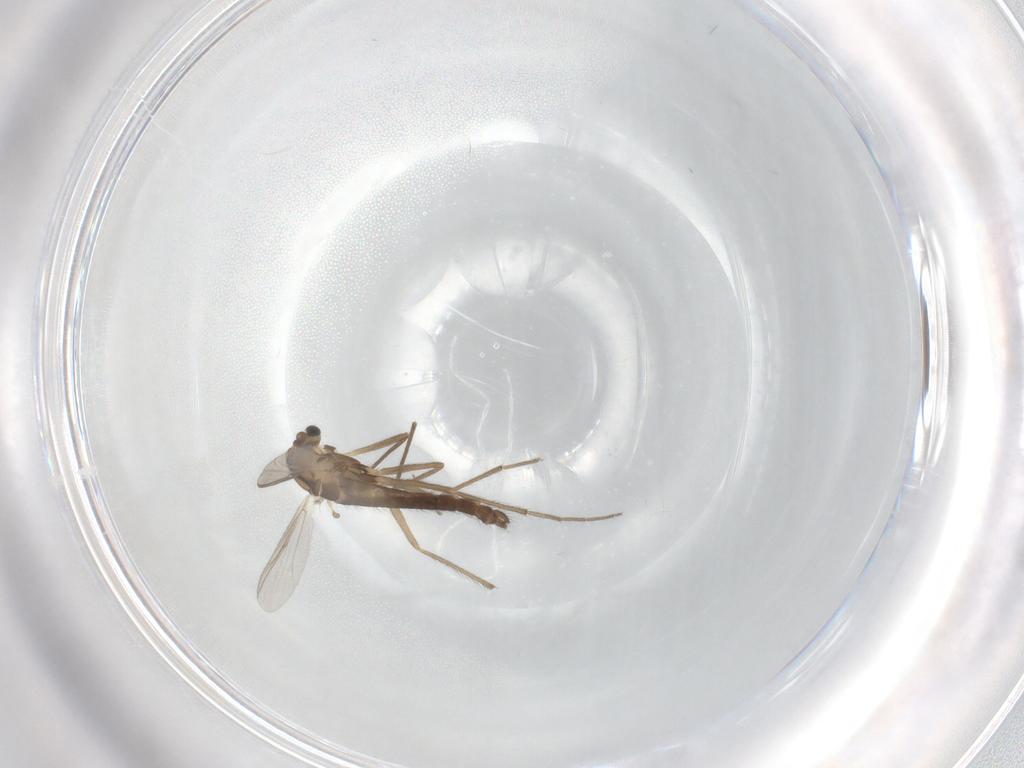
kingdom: Animalia
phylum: Arthropoda
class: Insecta
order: Diptera
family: Chironomidae
